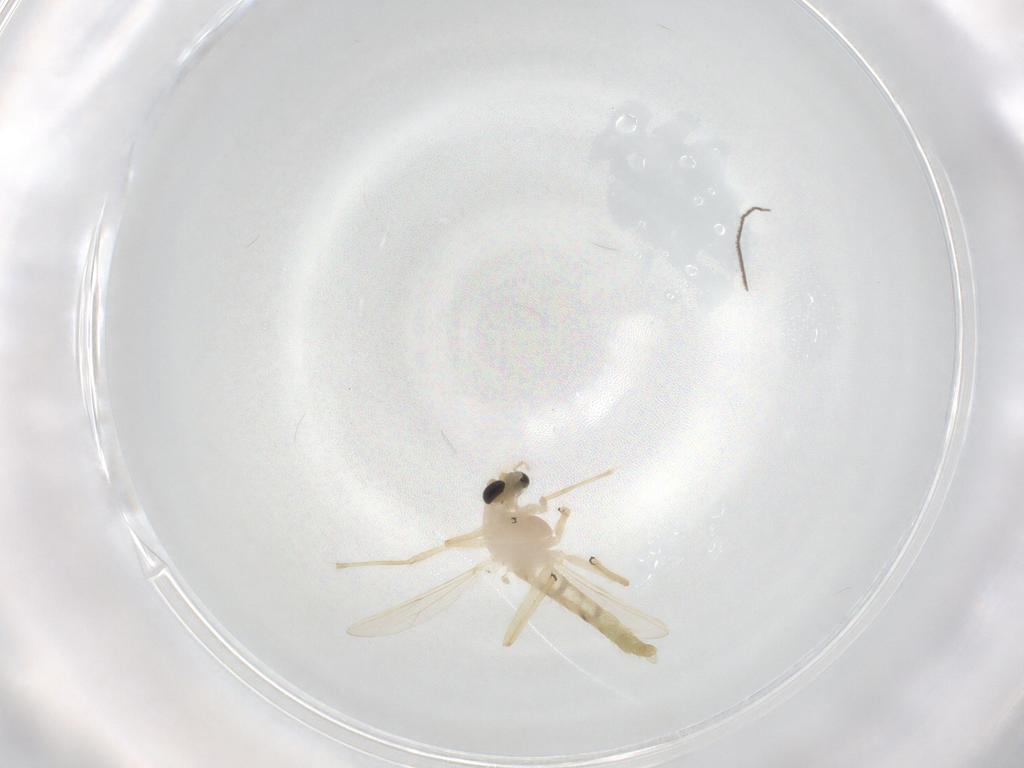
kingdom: Animalia
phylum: Arthropoda
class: Insecta
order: Diptera
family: Chironomidae
